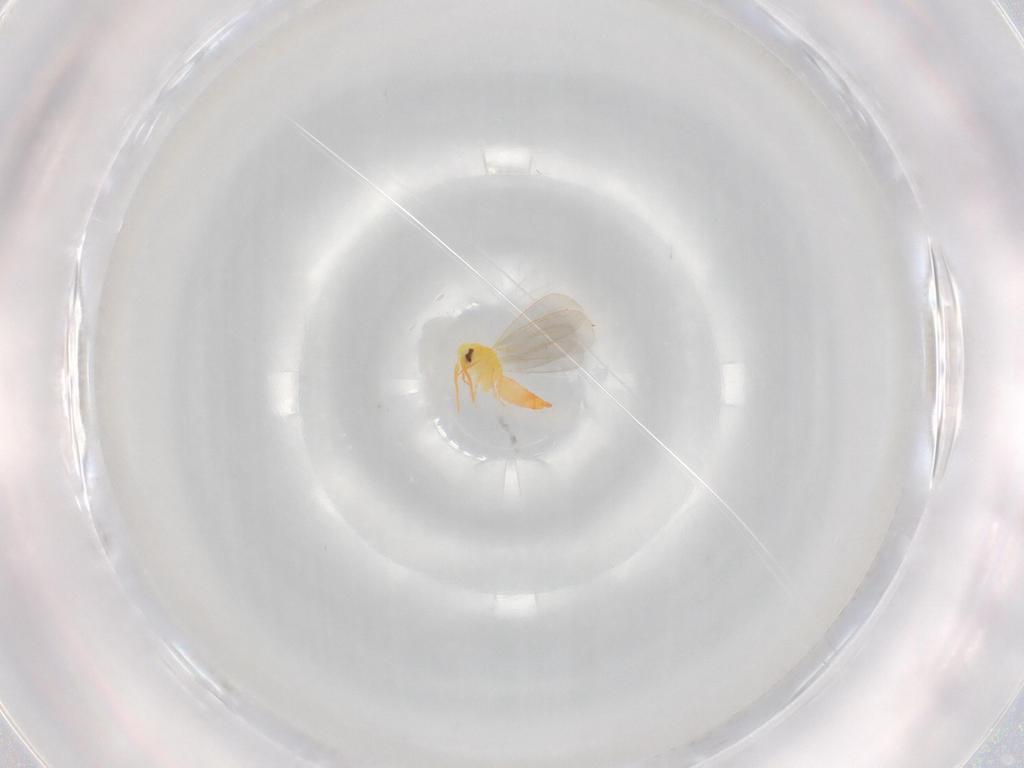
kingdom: Animalia
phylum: Arthropoda
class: Insecta
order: Hemiptera
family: Aleyrodidae
